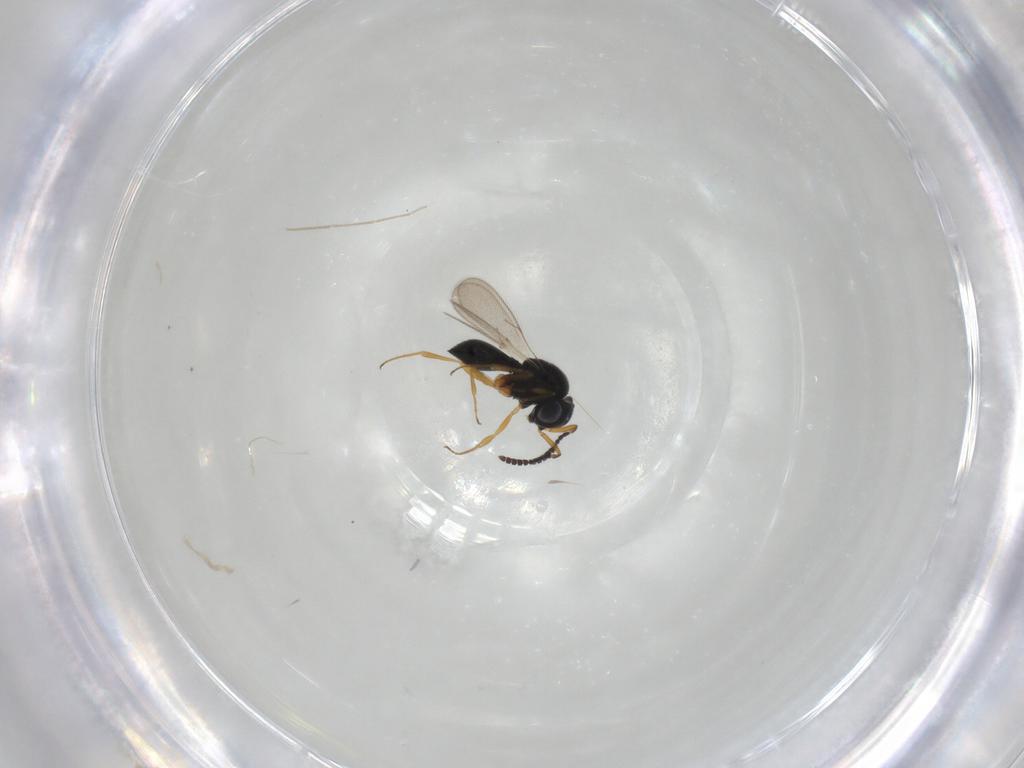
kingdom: Animalia
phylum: Arthropoda
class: Insecta
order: Hymenoptera
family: Scelionidae
